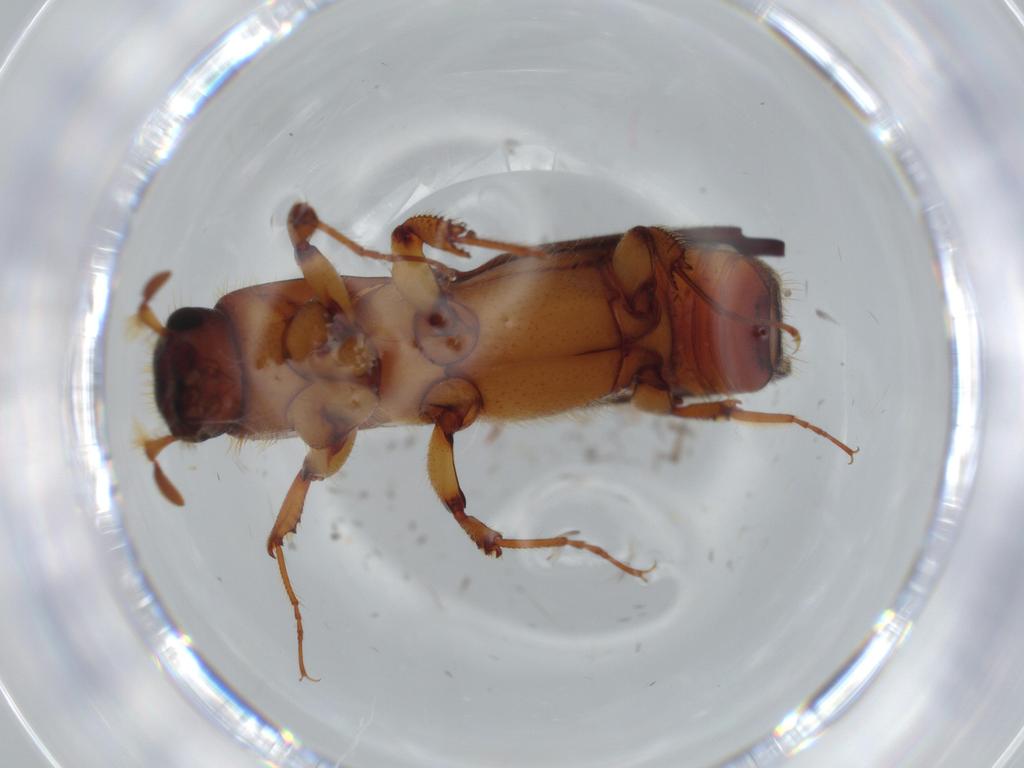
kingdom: Animalia
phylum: Arthropoda
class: Insecta
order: Coleoptera
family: Curculionidae
